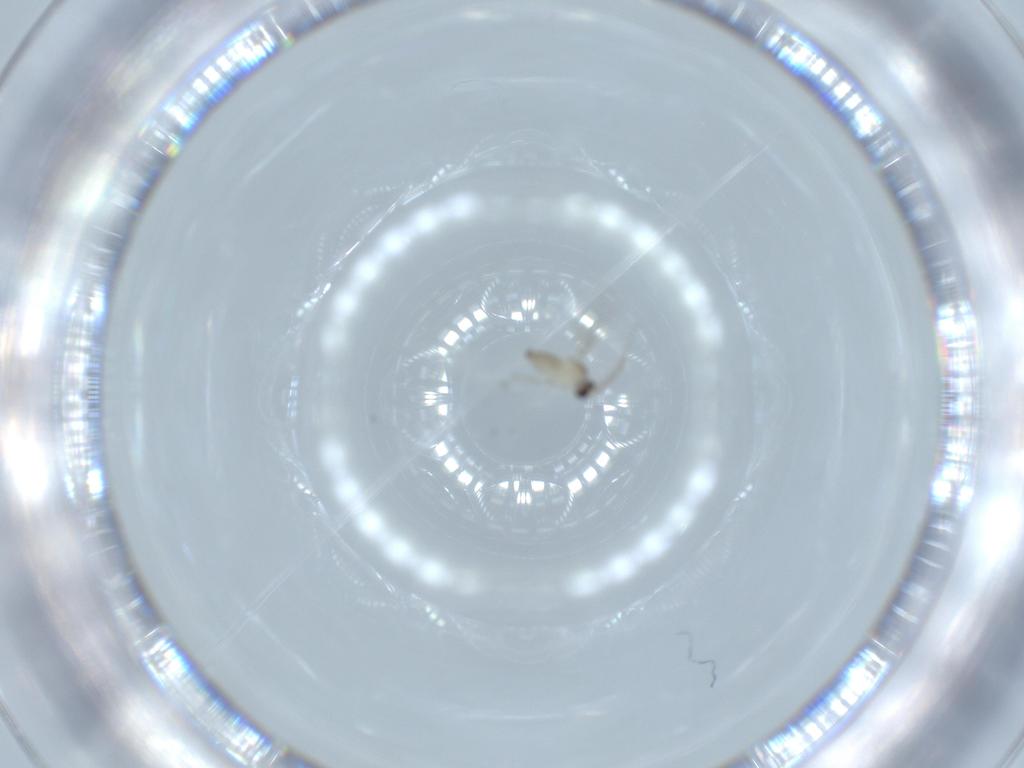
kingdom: Animalia
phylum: Arthropoda
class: Insecta
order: Diptera
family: Cecidomyiidae
